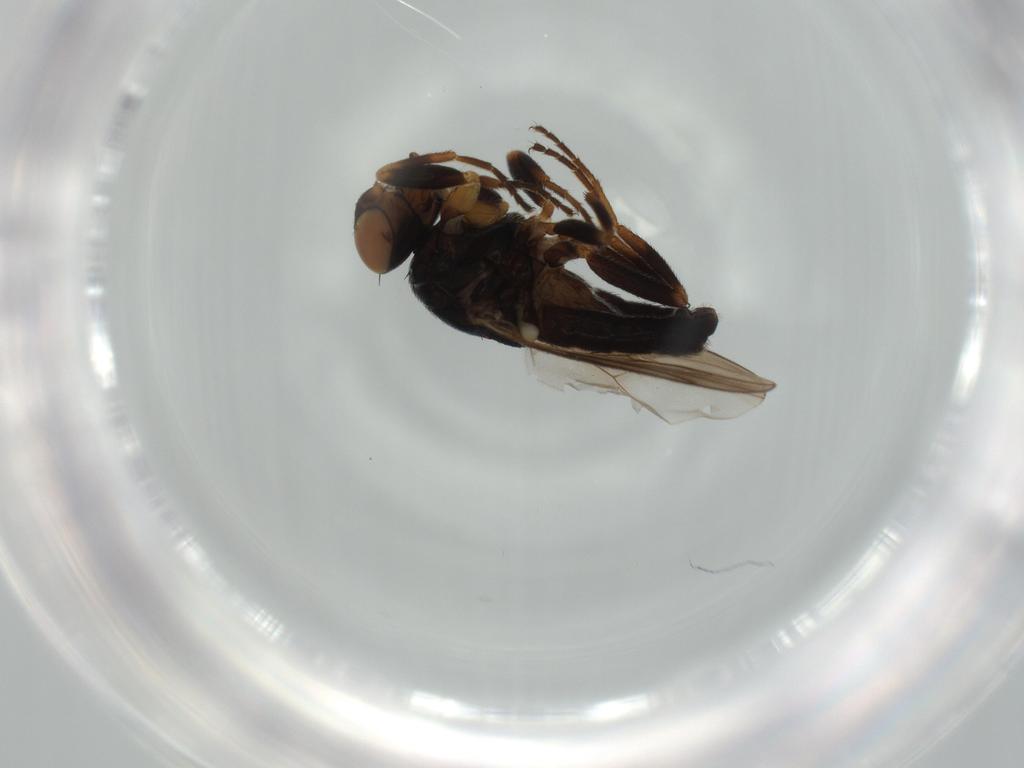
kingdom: Animalia
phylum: Arthropoda
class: Insecta
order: Diptera
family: Chloropidae
